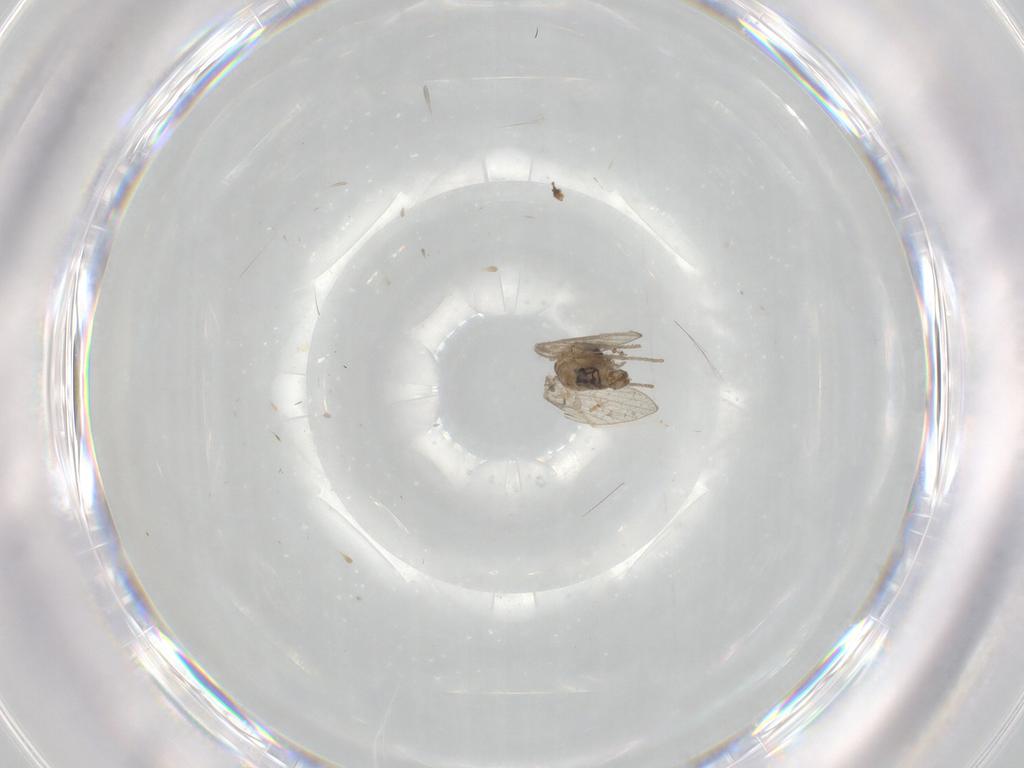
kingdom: Animalia
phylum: Arthropoda
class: Insecta
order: Diptera
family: Psychodidae
